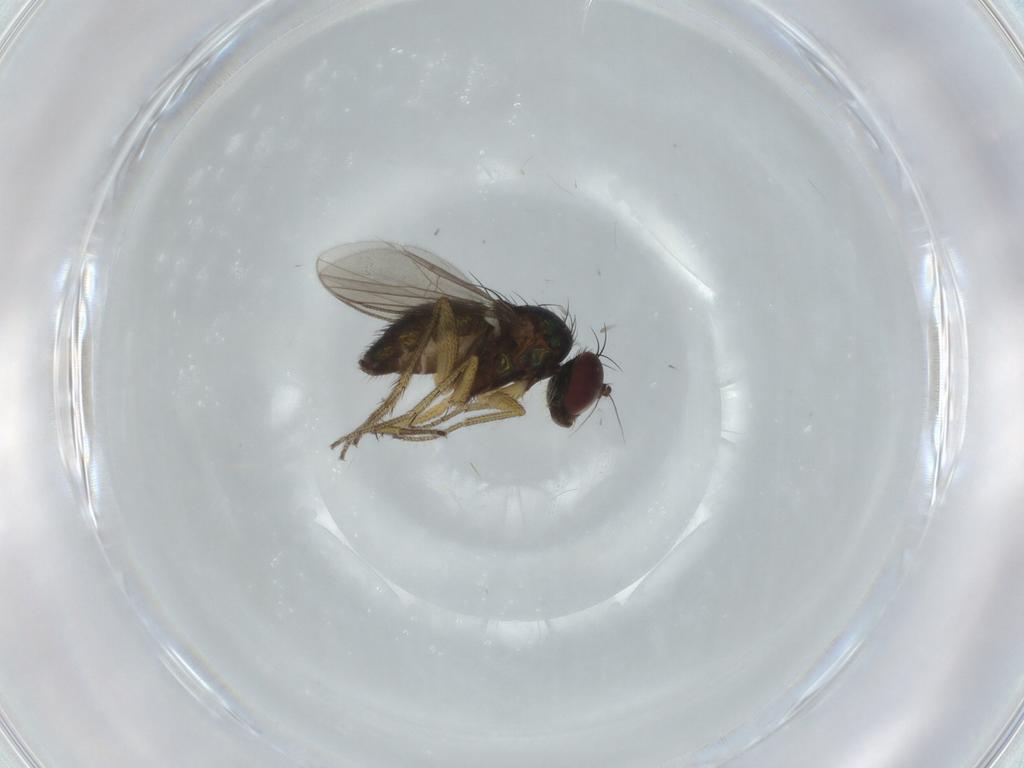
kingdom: Animalia
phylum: Arthropoda
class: Insecta
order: Diptera
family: Dolichopodidae
